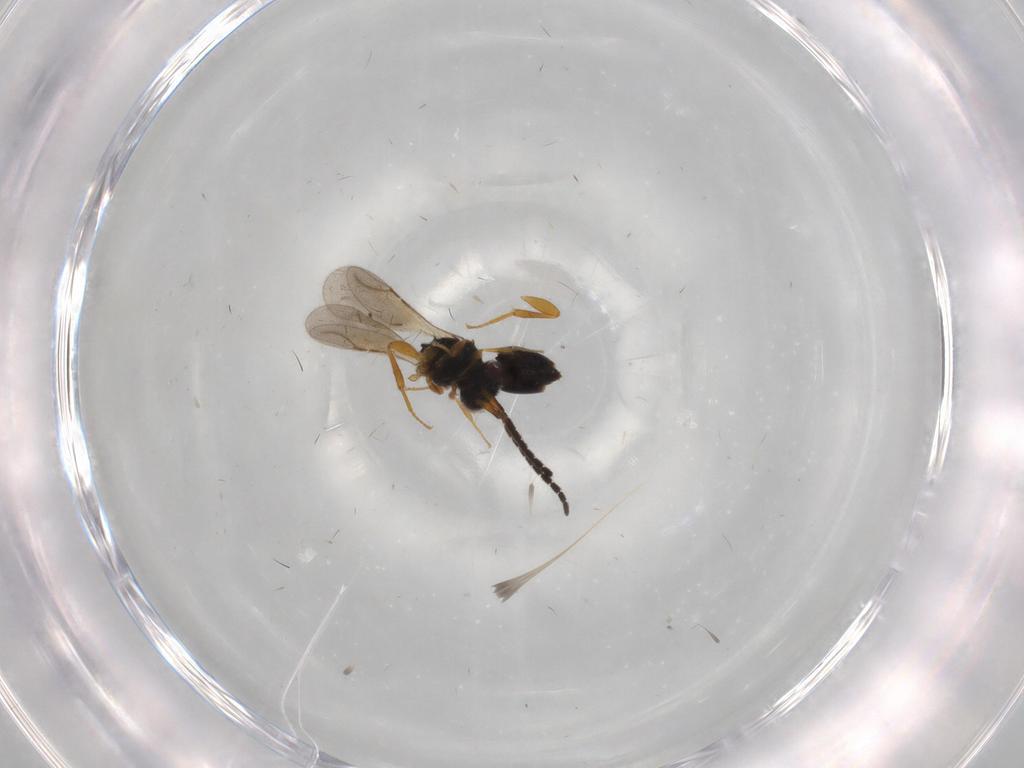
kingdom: Animalia
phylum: Arthropoda
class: Insecta
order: Hymenoptera
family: Ceraphronidae
